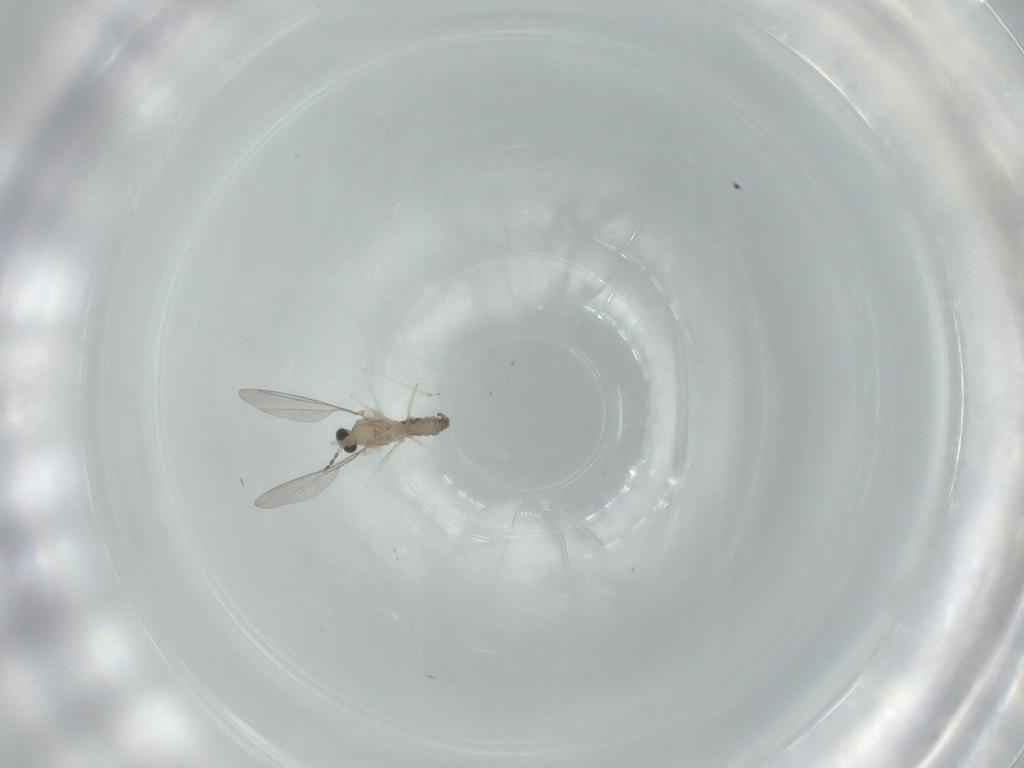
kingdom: Animalia
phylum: Arthropoda
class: Insecta
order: Diptera
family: Cecidomyiidae
